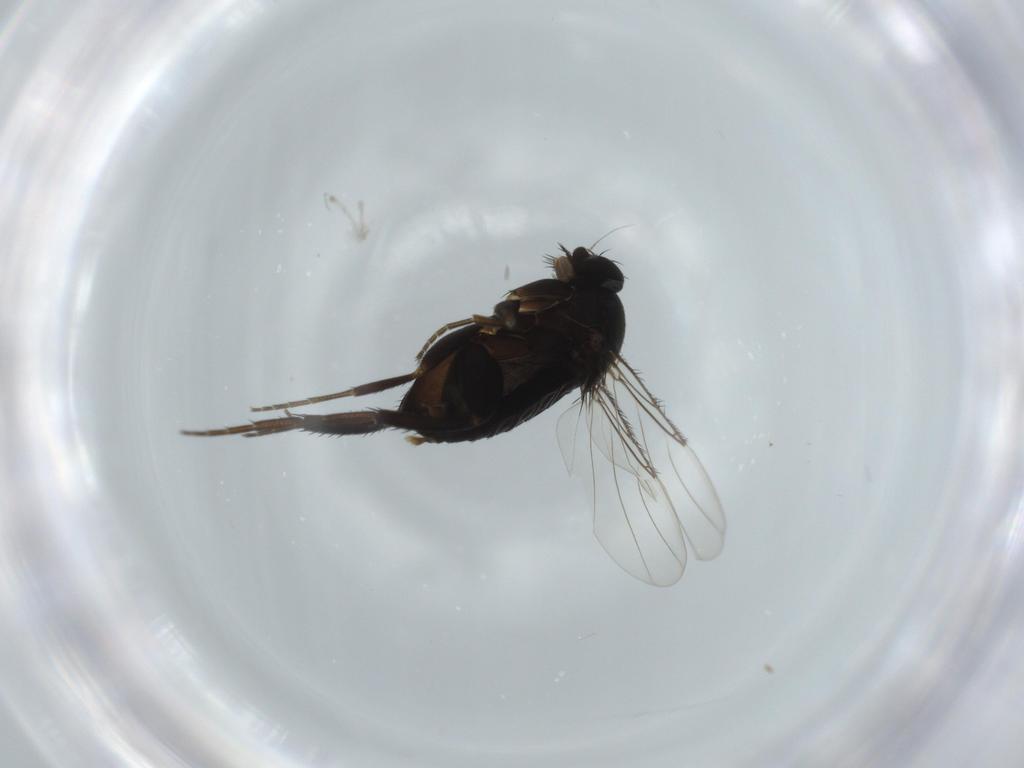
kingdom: Animalia
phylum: Arthropoda
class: Insecta
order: Diptera
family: Phoridae
